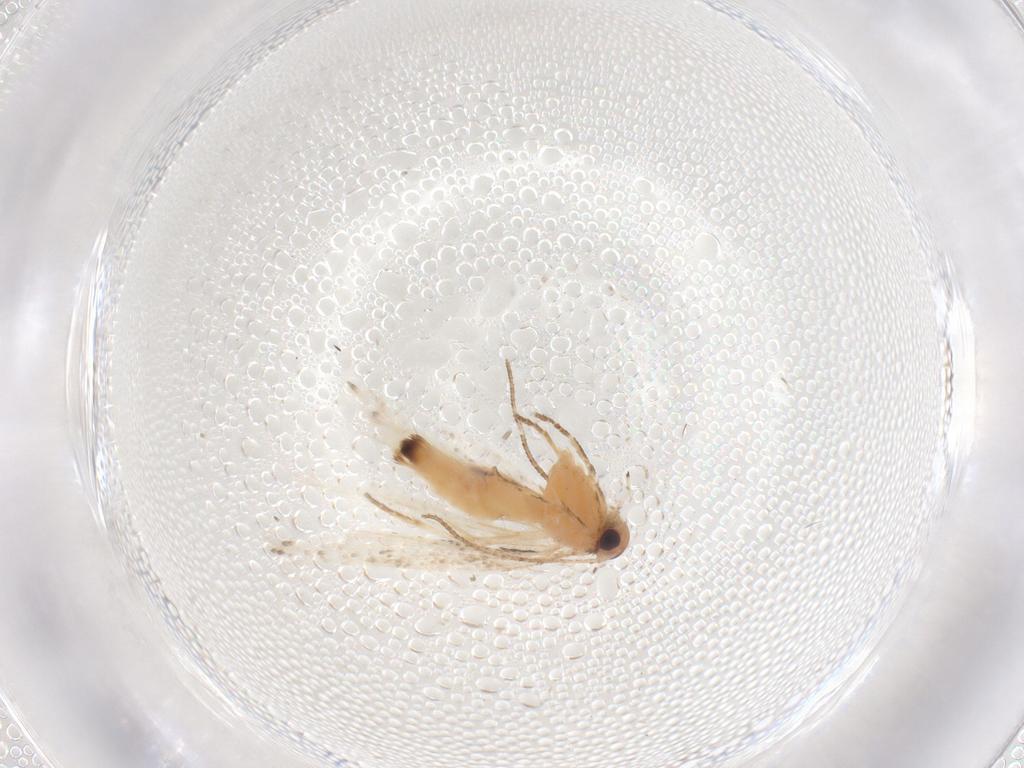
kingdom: Animalia
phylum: Arthropoda
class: Insecta
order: Lepidoptera
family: Gelechiidae
